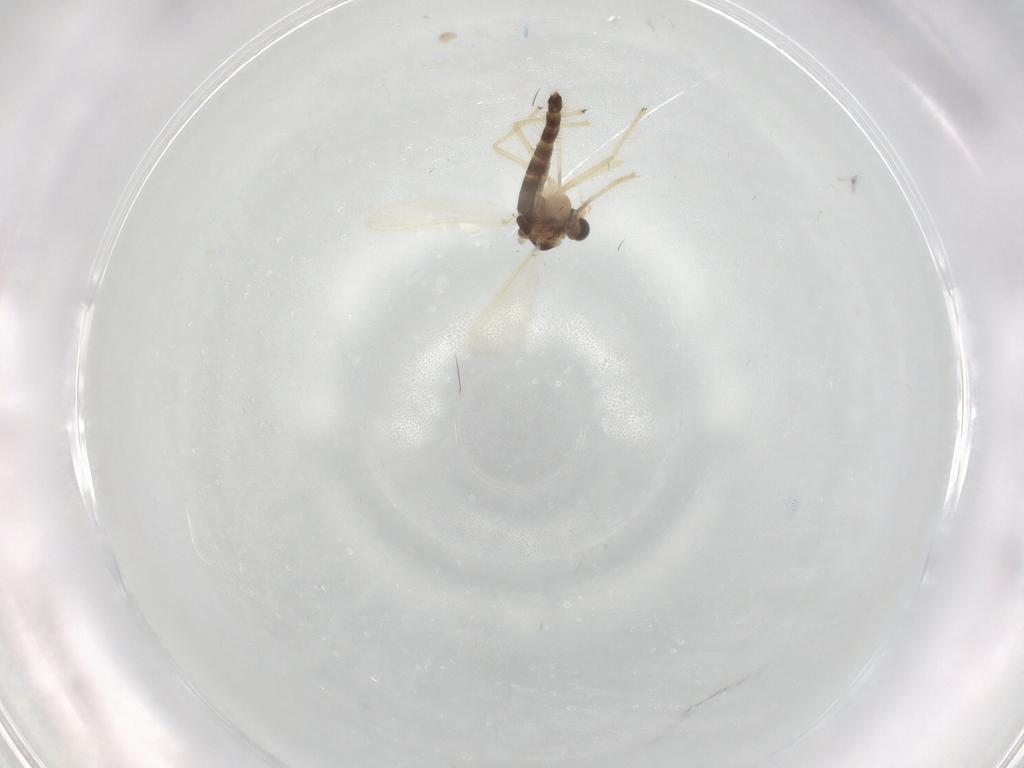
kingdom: Animalia
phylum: Arthropoda
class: Insecta
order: Diptera
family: Chironomidae
